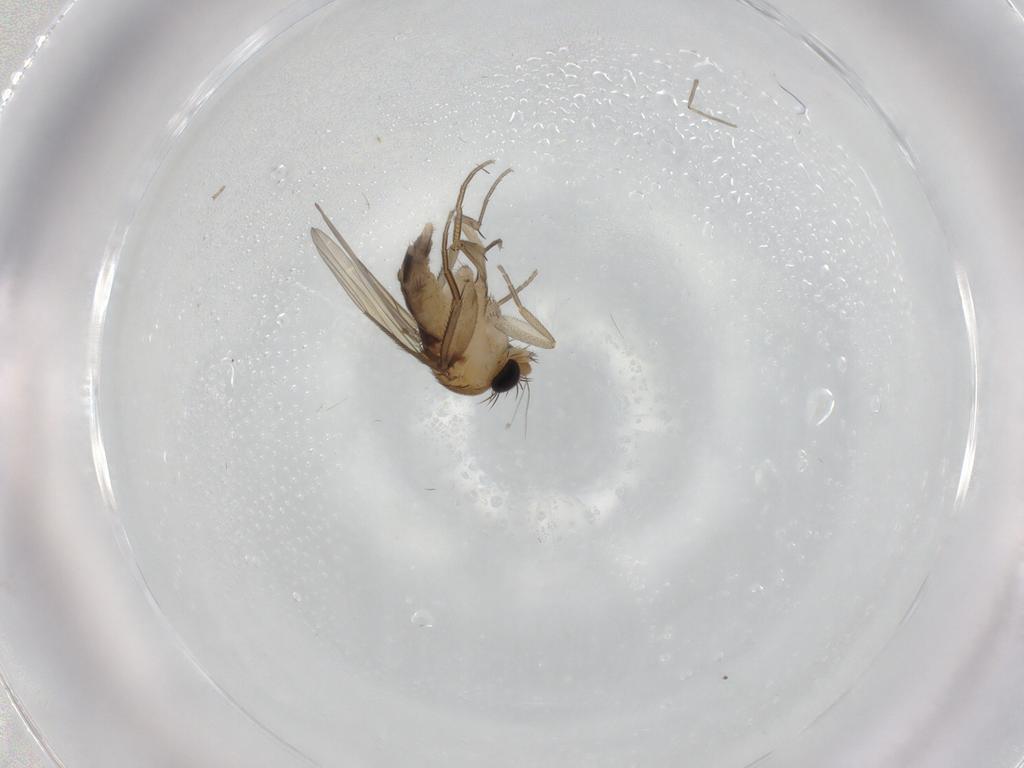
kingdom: Animalia
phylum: Arthropoda
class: Insecta
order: Diptera
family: Phoridae
